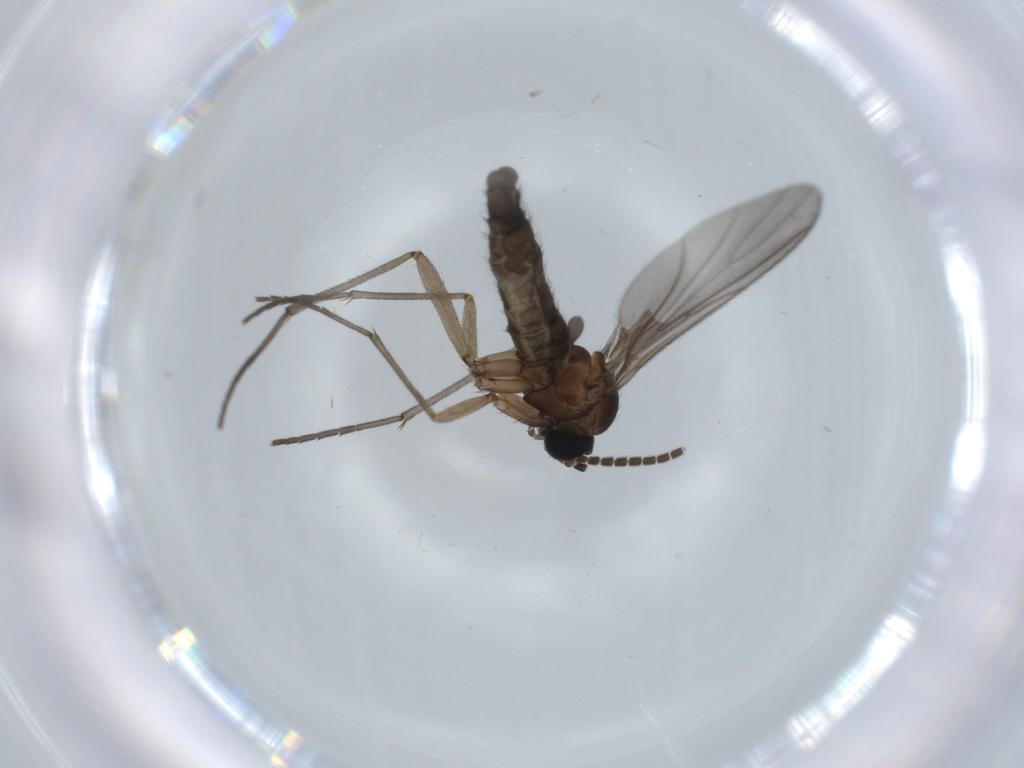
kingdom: Animalia
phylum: Arthropoda
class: Insecta
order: Diptera
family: Sciaridae
